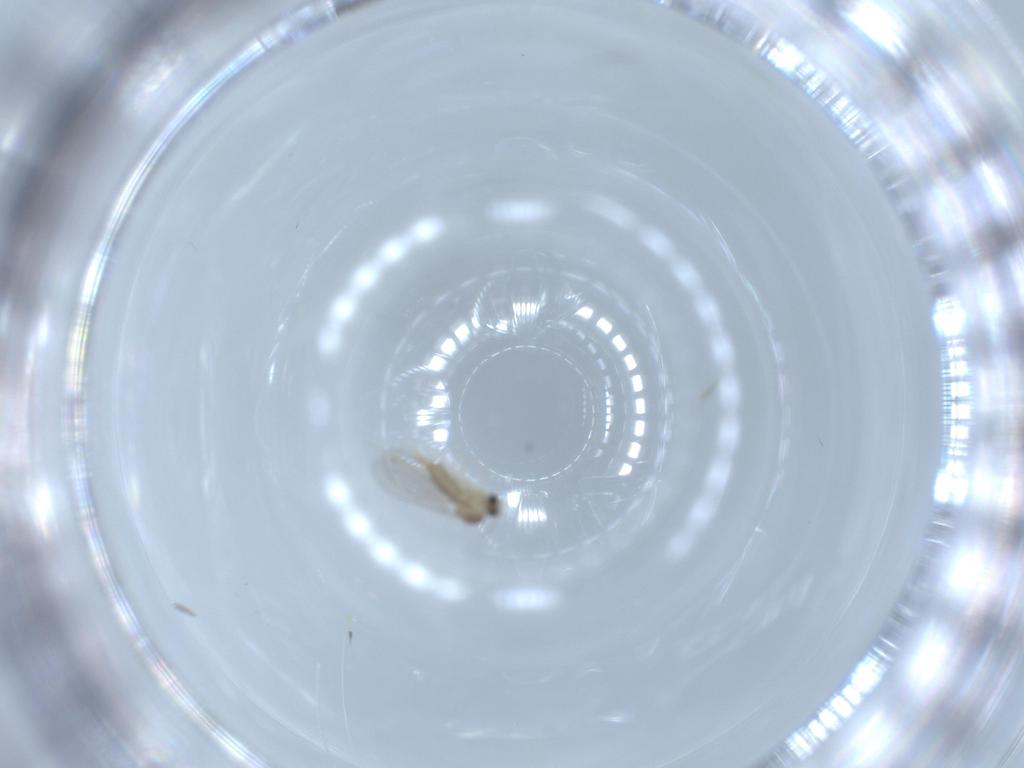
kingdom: Animalia
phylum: Arthropoda
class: Insecta
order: Diptera
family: Cecidomyiidae
